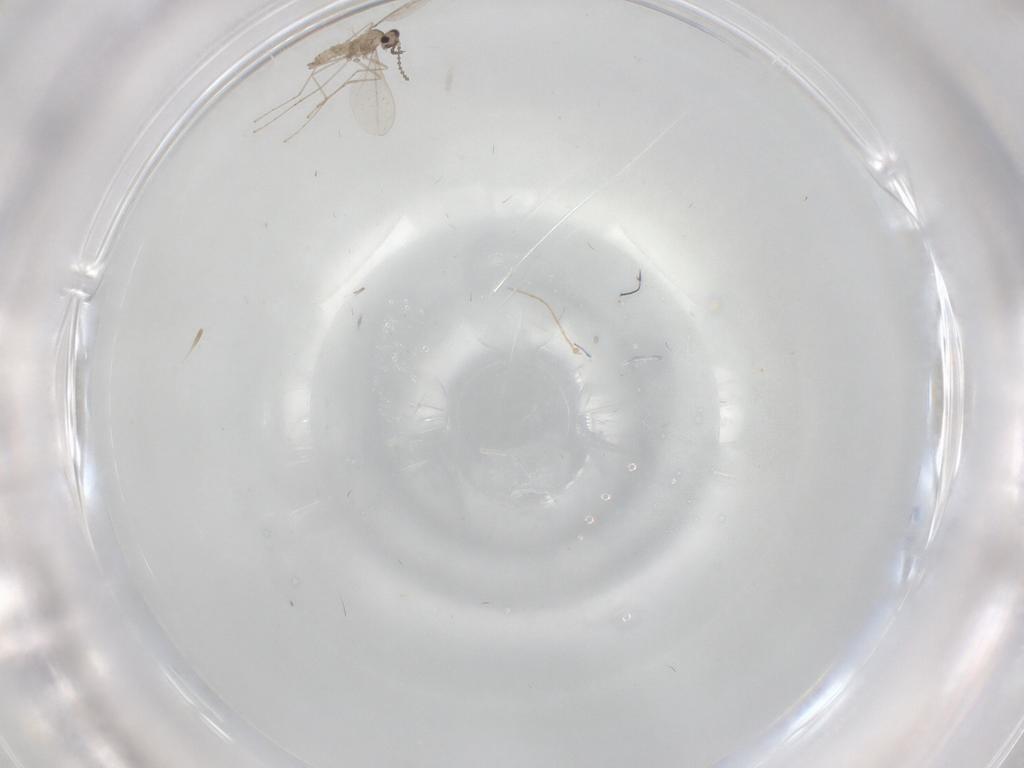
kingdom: Animalia
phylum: Arthropoda
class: Insecta
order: Diptera
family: Cecidomyiidae
